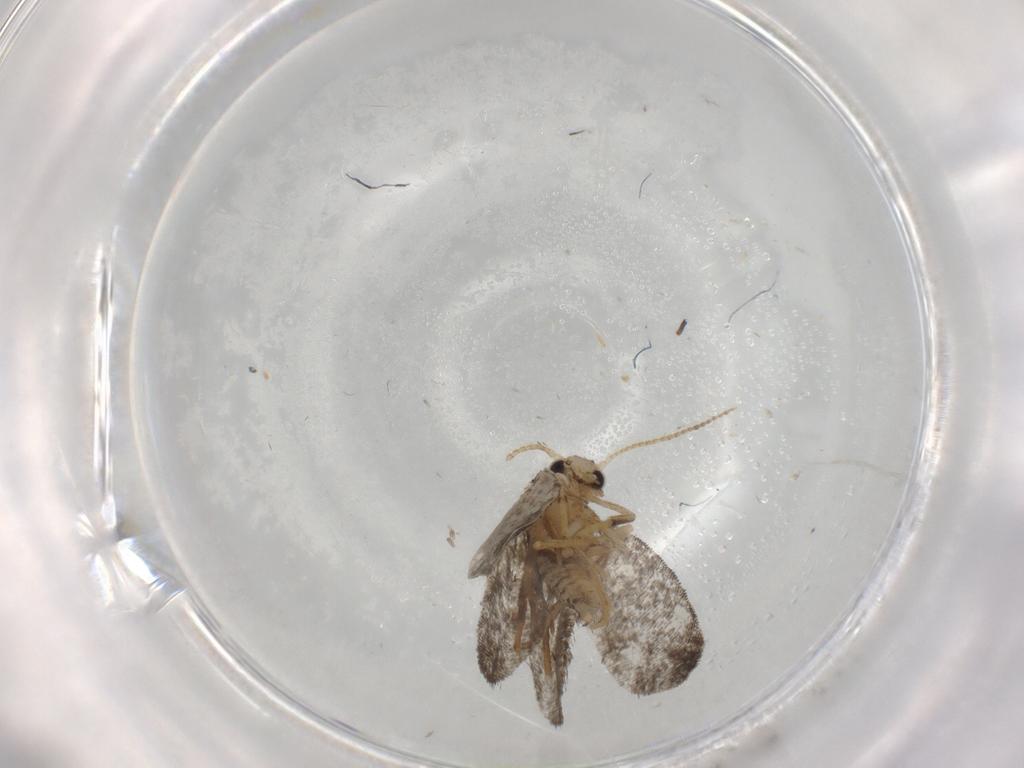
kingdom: Animalia
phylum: Arthropoda
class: Insecta
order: Lepidoptera
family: Psychidae
